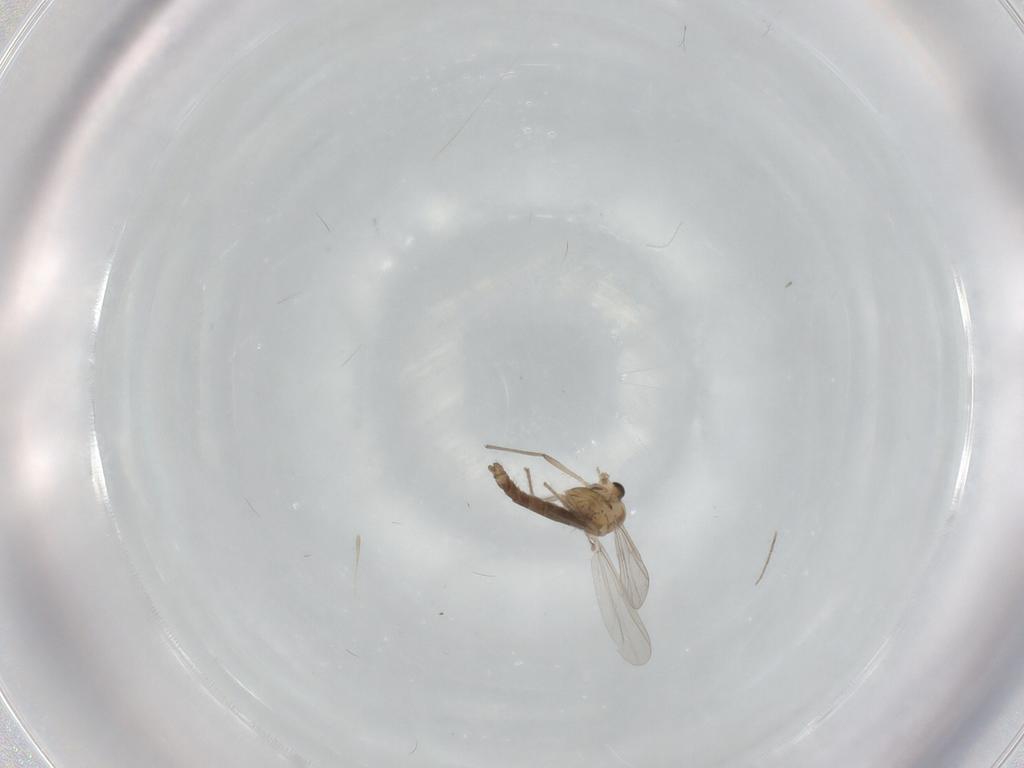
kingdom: Animalia
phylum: Arthropoda
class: Insecta
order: Diptera
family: Chironomidae
